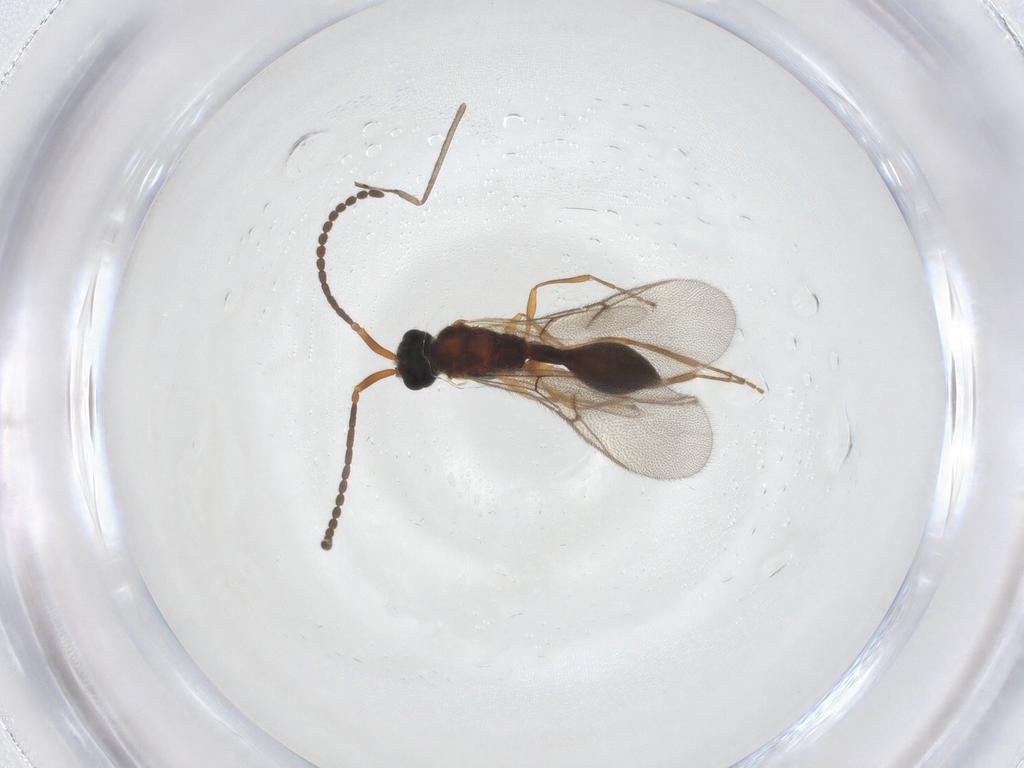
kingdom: Animalia
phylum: Arthropoda
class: Insecta
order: Hymenoptera
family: Diapriidae
